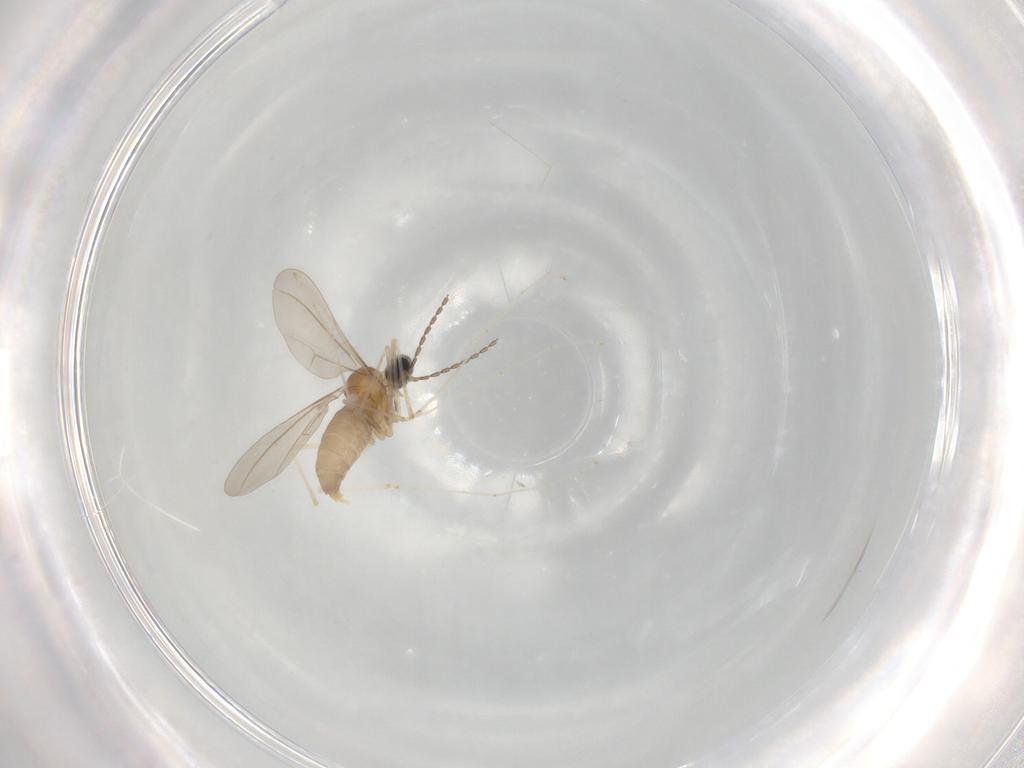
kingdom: Animalia
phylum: Arthropoda
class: Insecta
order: Diptera
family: Cecidomyiidae
